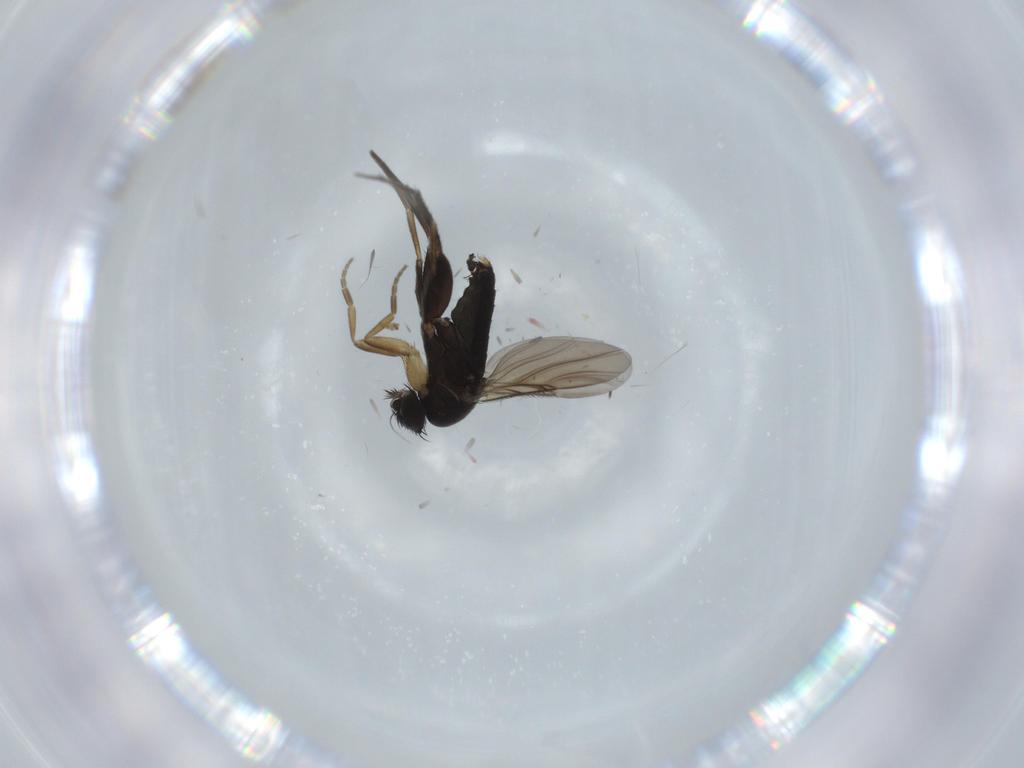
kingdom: Animalia
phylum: Arthropoda
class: Insecta
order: Diptera
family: Phoridae
